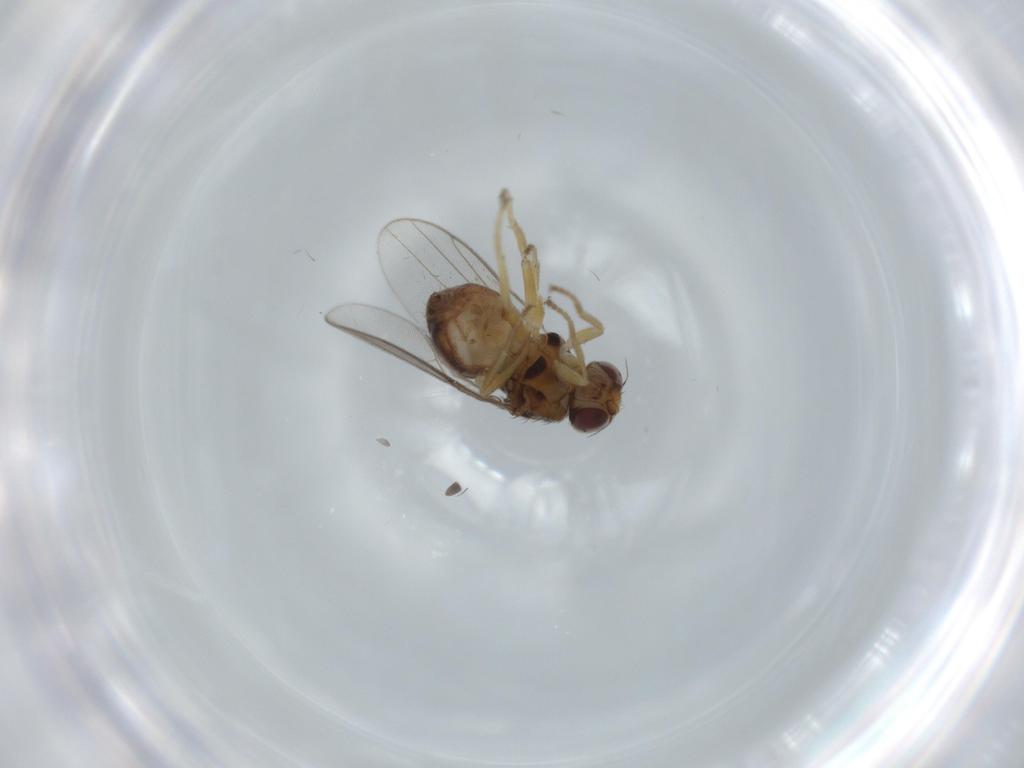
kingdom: Animalia
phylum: Arthropoda
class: Insecta
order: Diptera
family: Chloropidae
